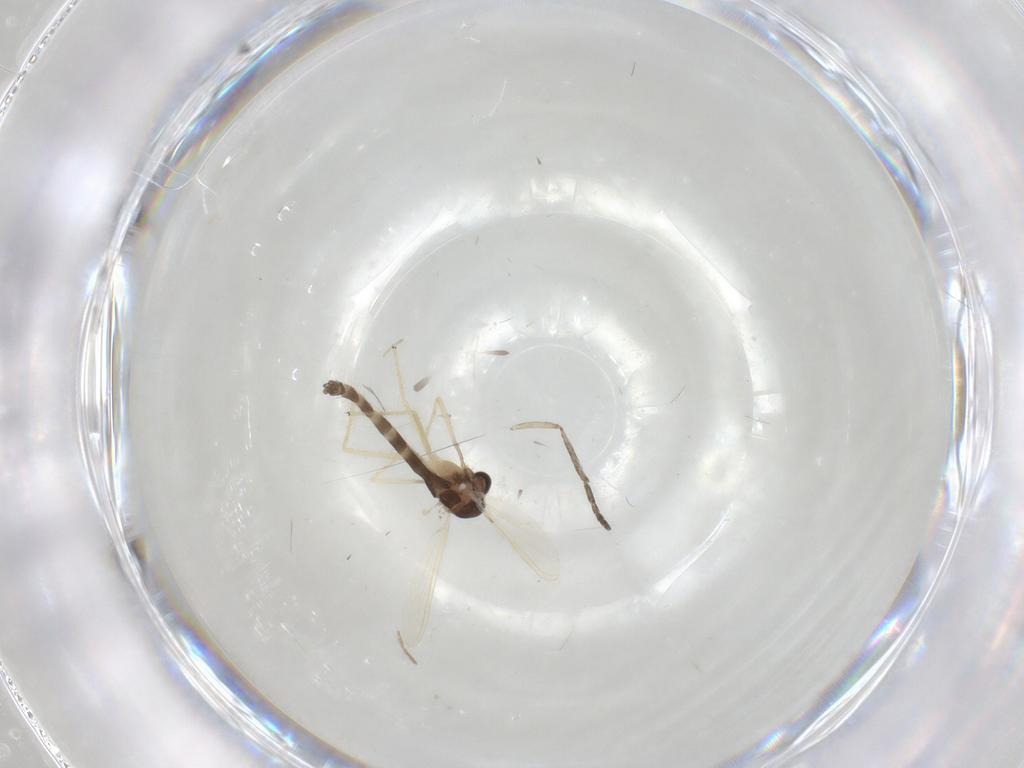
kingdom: Animalia
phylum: Arthropoda
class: Insecta
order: Diptera
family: Chironomidae
